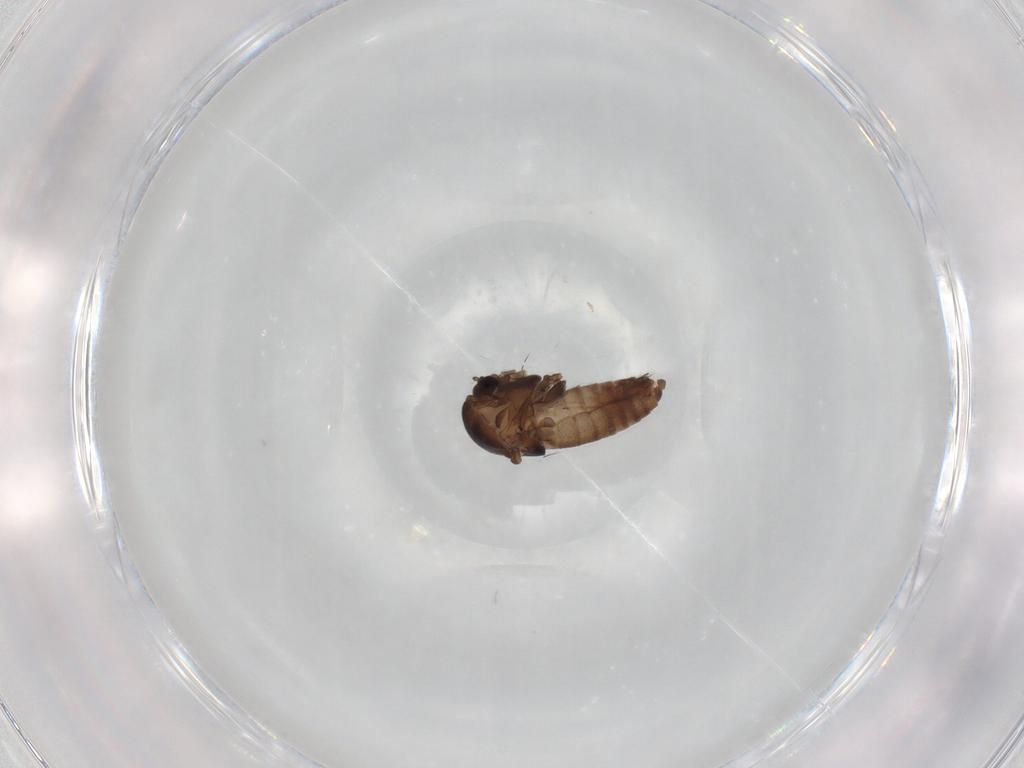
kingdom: Animalia
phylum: Arthropoda
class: Insecta
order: Diptera
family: Chironomidae
